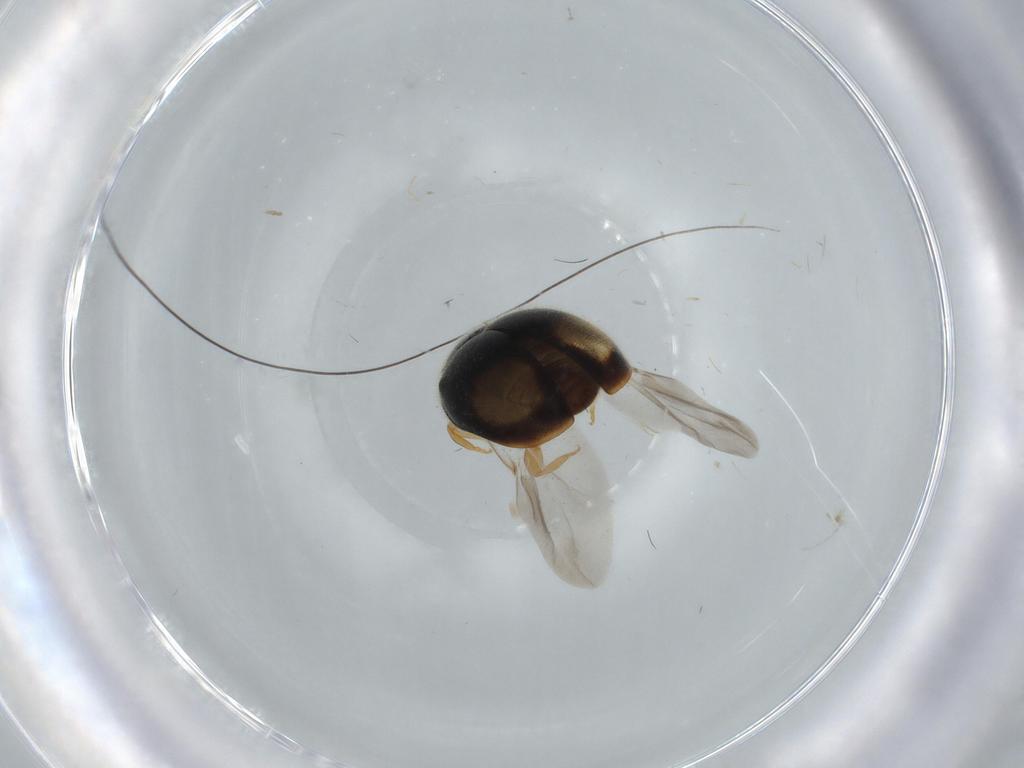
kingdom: Animalia
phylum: Arthropoda
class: Insecta
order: Coleoptera
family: Coccinellidae
